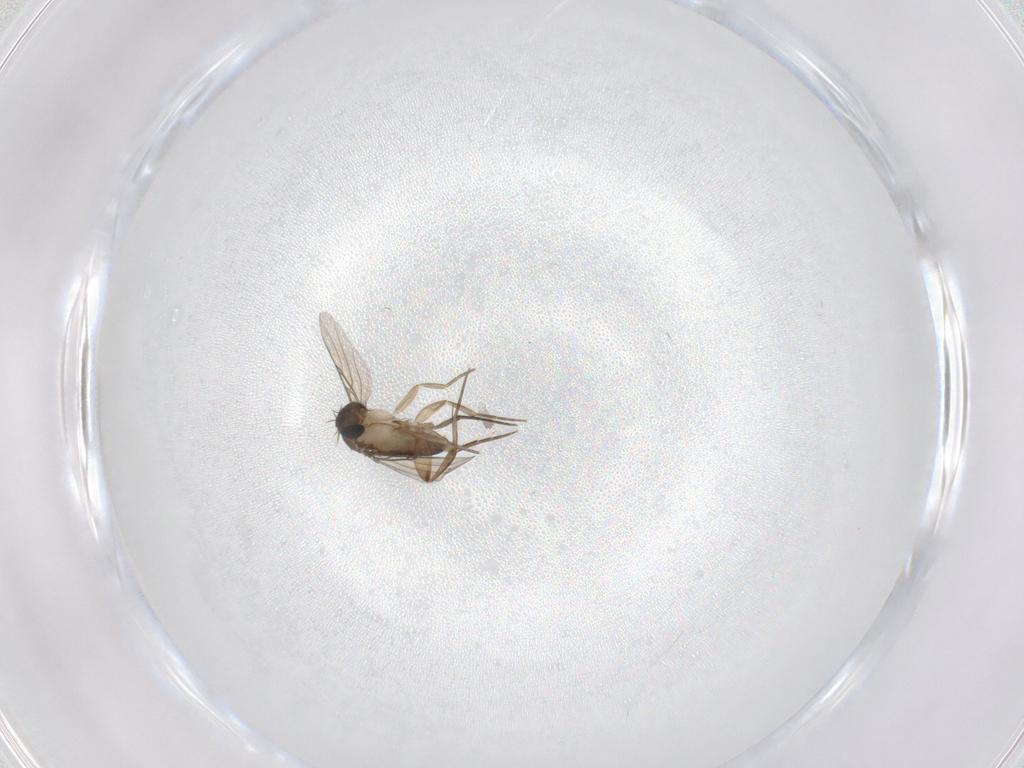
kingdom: Animalia
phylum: Arthropoda
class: Insecta
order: Diptera
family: Phoridae
